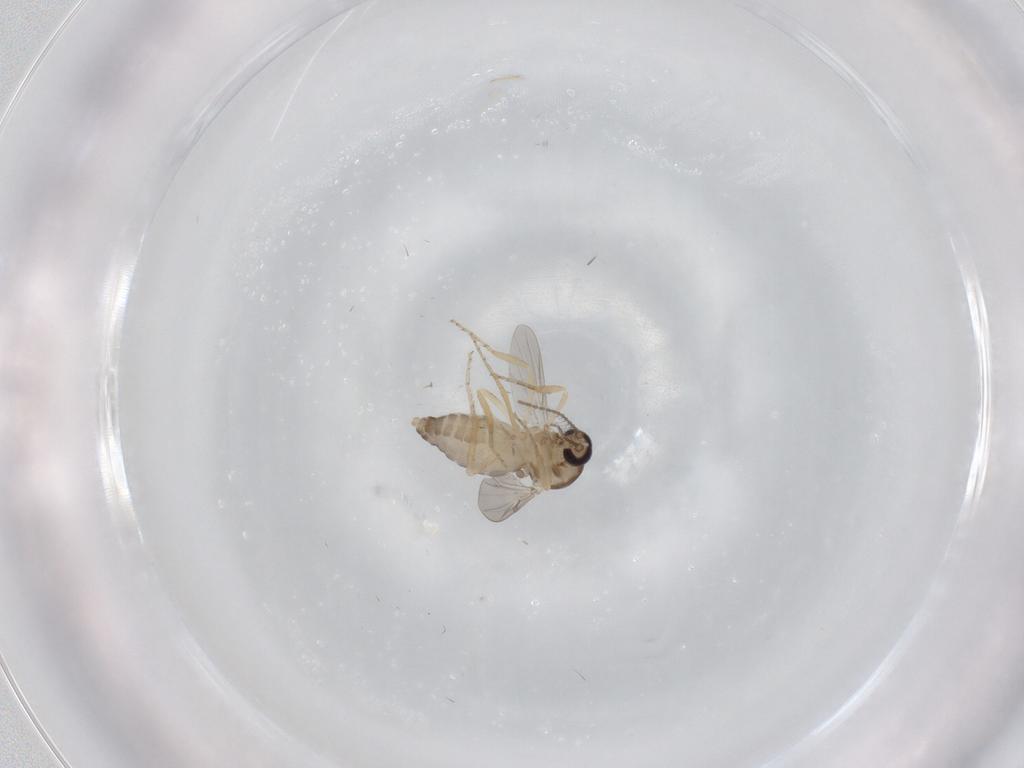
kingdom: Animalia
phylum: Arthropoda
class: Insecta
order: Diptera
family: Ceratopogonidae
